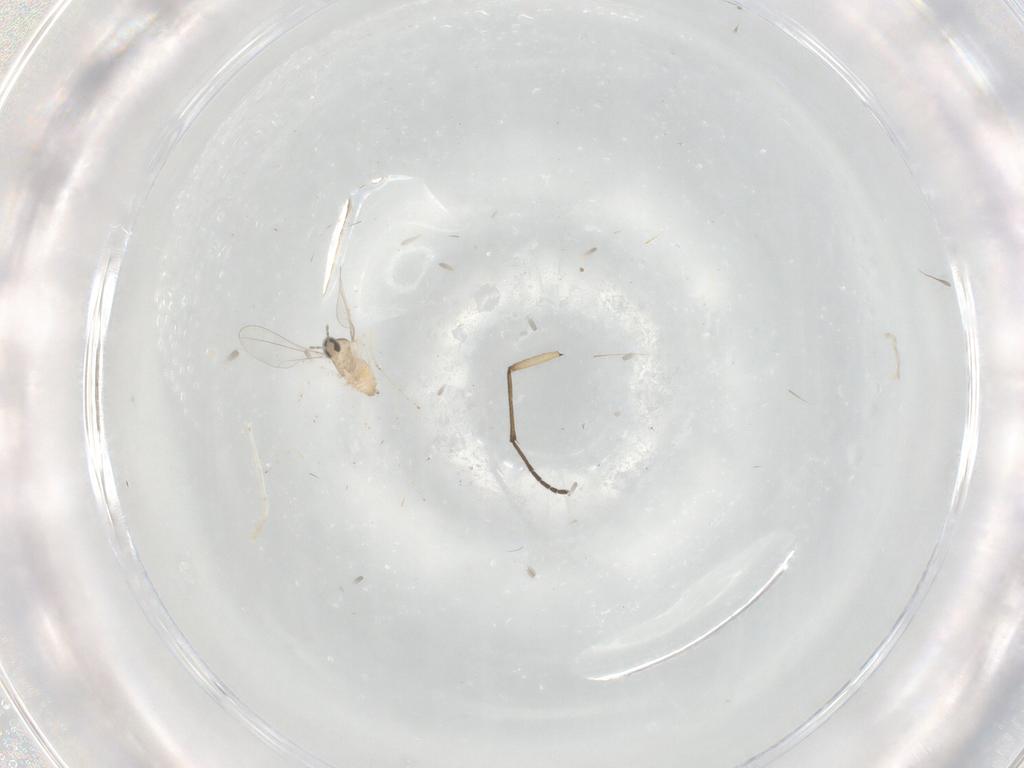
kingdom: Animalia
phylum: Arthropoda
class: Insecta
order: Diptera
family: Sciaridae
